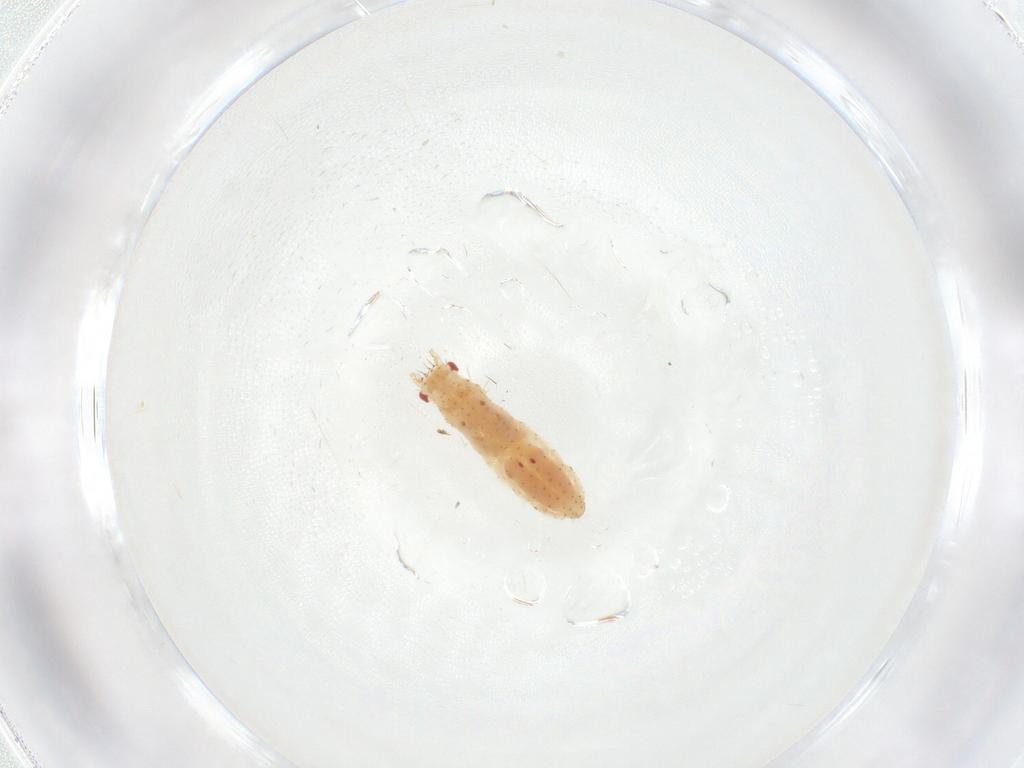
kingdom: Animalia
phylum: Arthropoda
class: Insecta
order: Hemiptera
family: Aphididae
